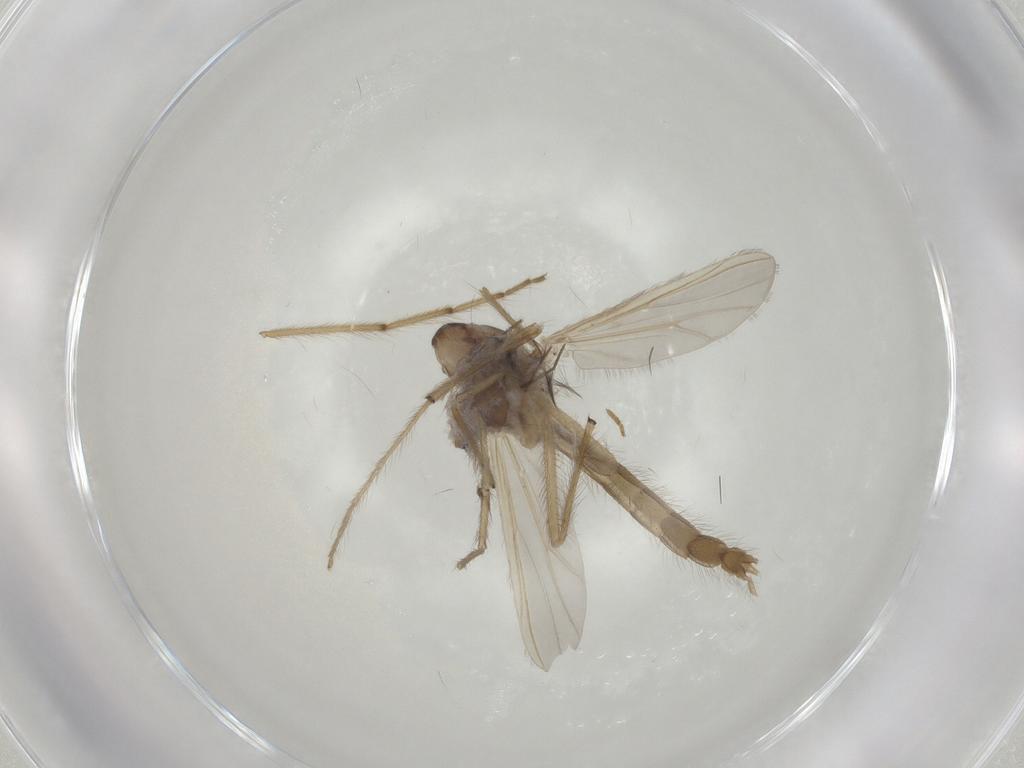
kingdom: Animalia
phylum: Arthropoda
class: Insecta
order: Diptera
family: Chironomidae
